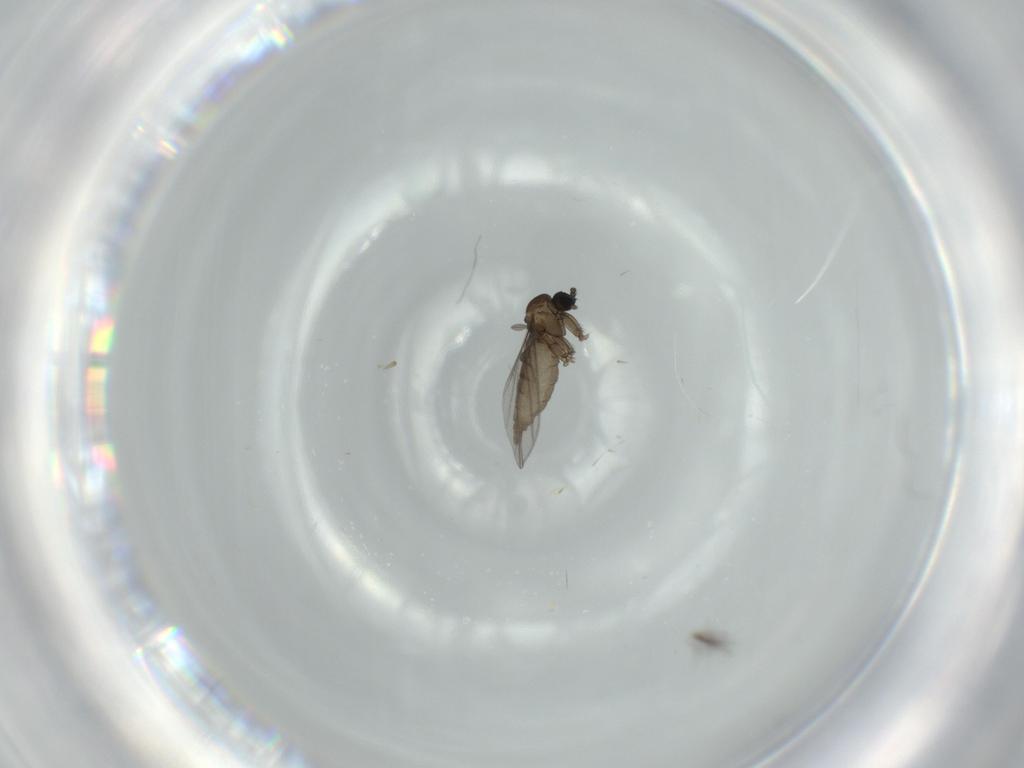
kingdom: Animalia
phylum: Arthropoda
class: Insecta
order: Diptera
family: Sciaridae
